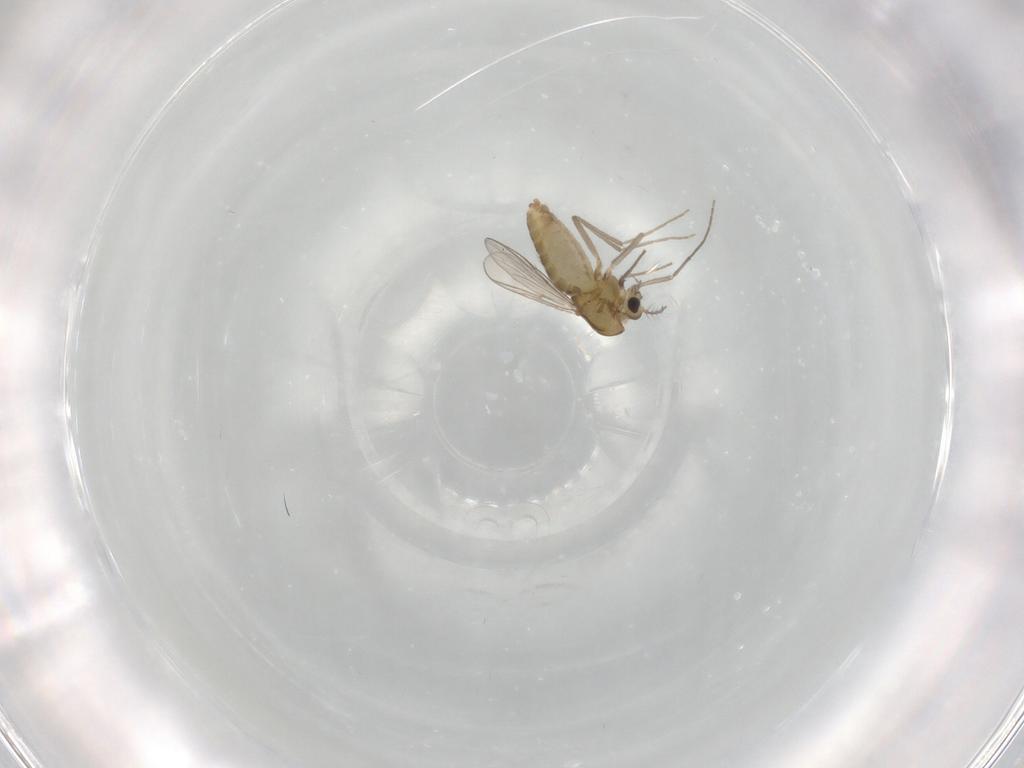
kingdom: Animalia
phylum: Arthropoda
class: Insecta
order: Diptera
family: Chironomidae
